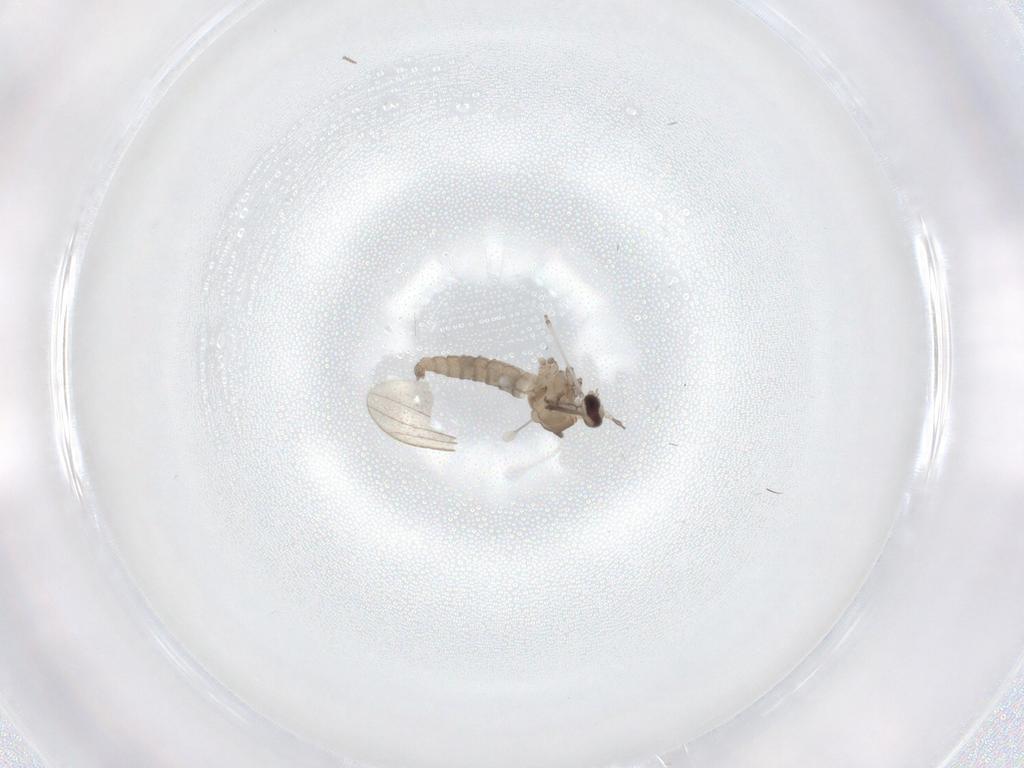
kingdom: Animalia
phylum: Arthropoda
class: Insecta
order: Diptera
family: Cecidomyiidae
